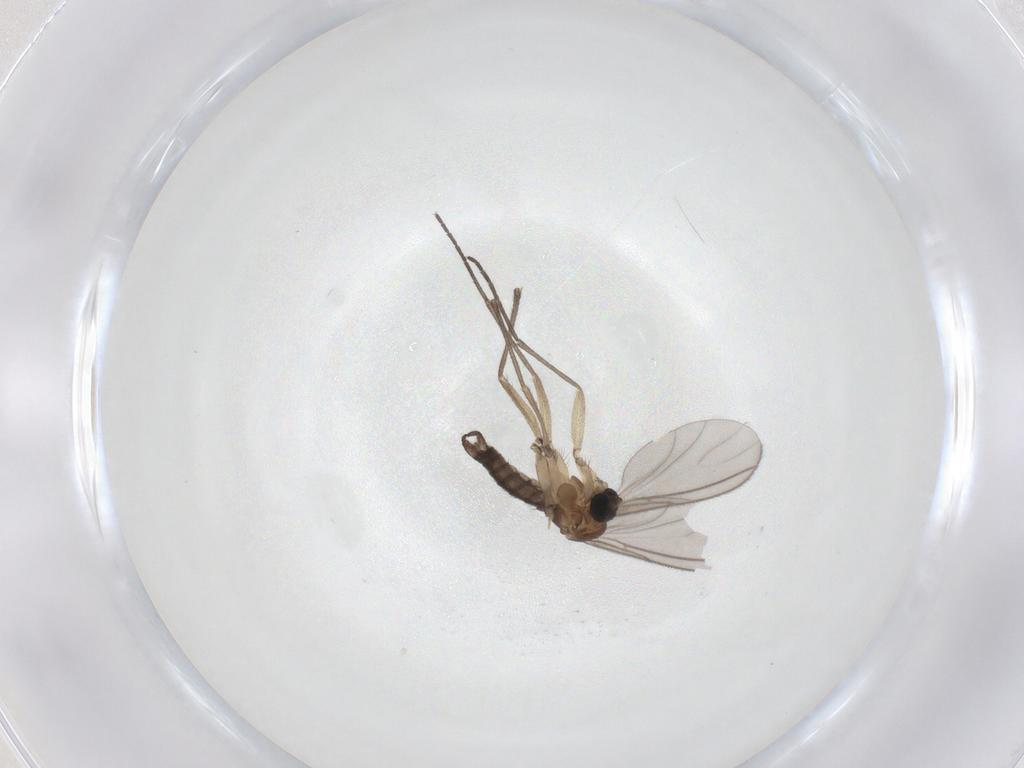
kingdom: Animalia
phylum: Arthropoda
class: Insecta
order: Diptera
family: Sciaridae
